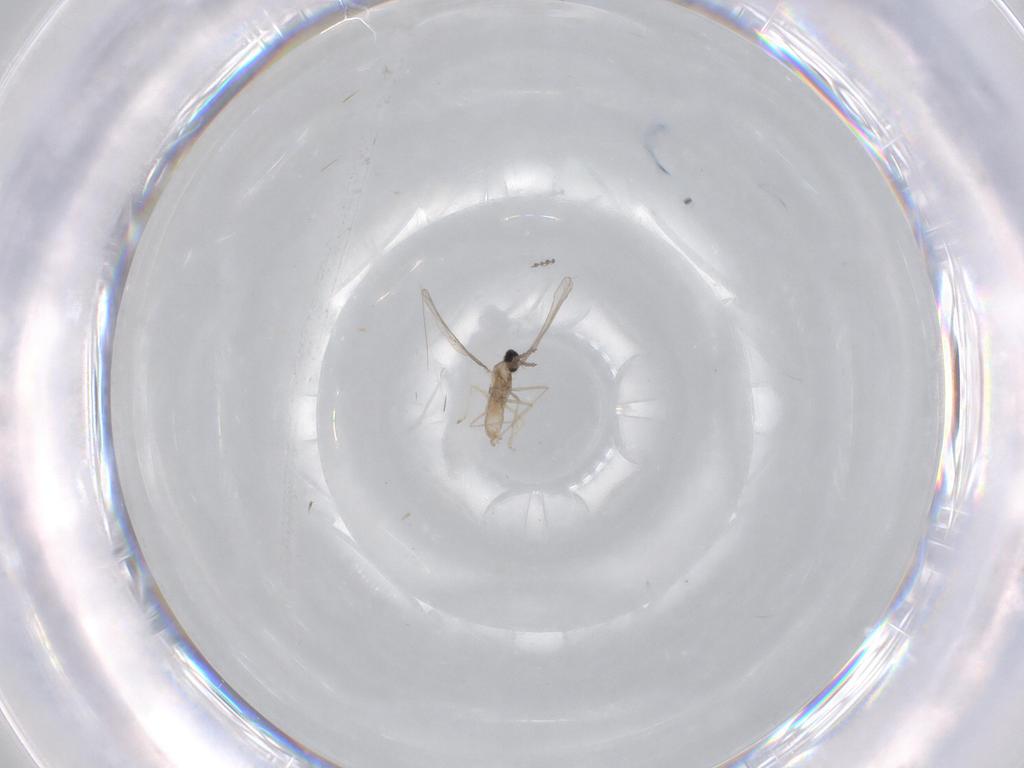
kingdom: Animalia
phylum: Arthropoda
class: Insecta
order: Diptera
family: Cecidomyiidae
